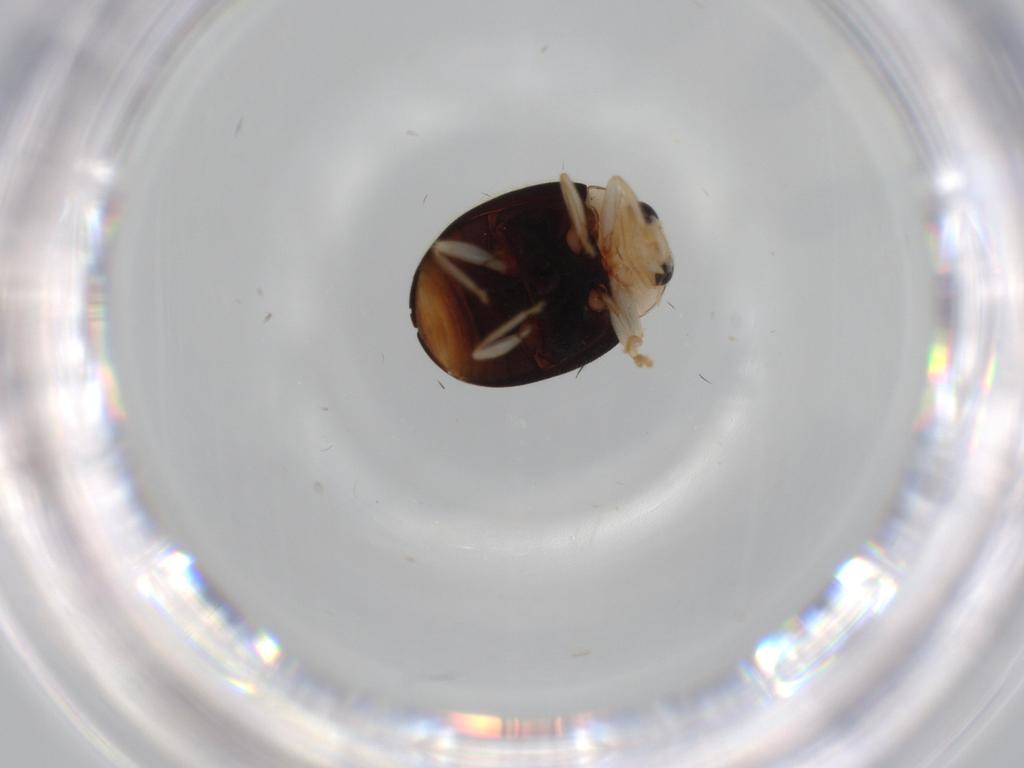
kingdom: Animalia
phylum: Arthropoda
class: Insecta
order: Coleoptera
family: Coccinellidae
